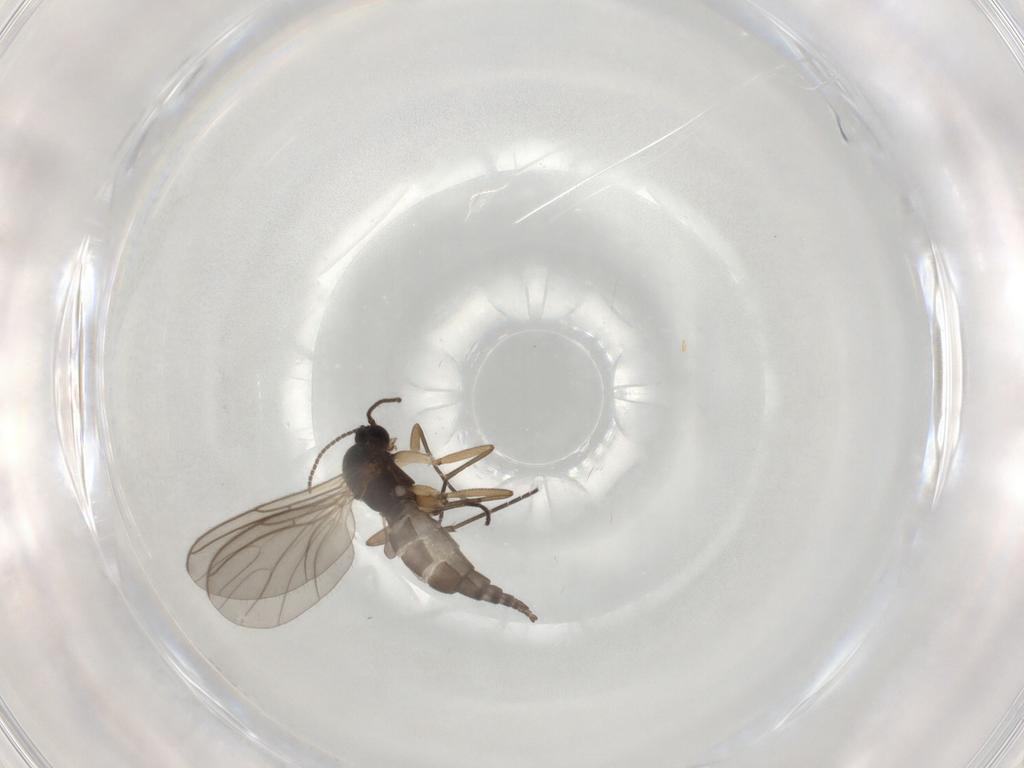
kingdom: Animalia
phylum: Arthropoda
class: Insecta
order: Diptera
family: Sciaridae
